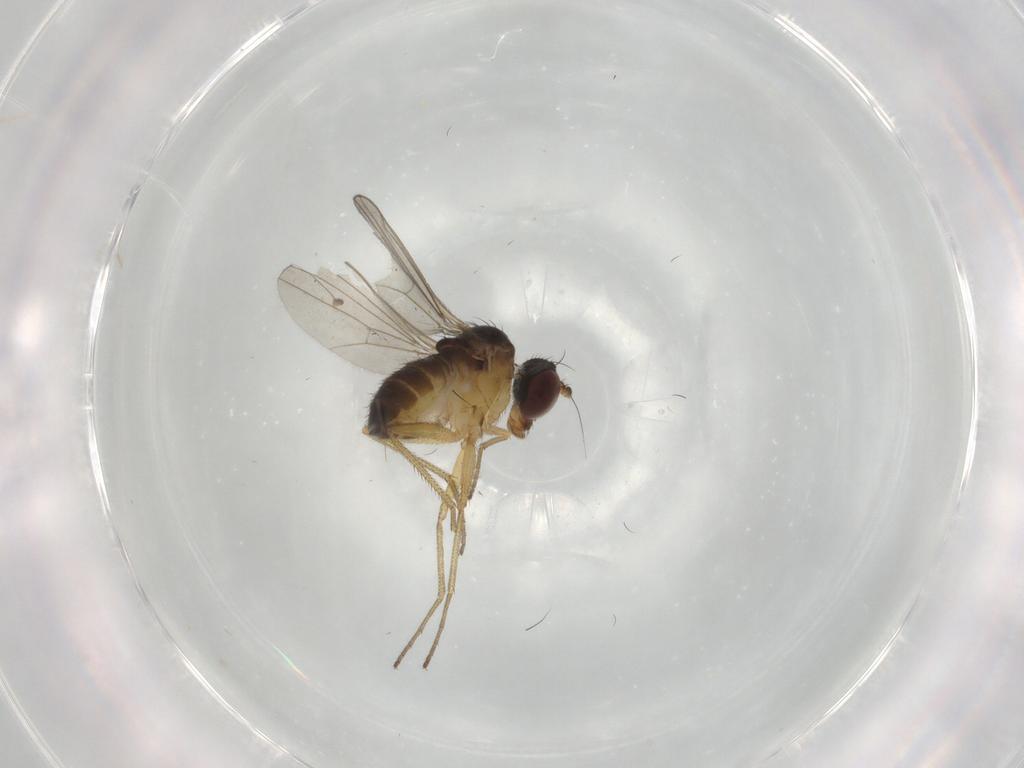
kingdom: Animalia
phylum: Arthropoda
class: Insecta
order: Diptera
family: Dolichopodidae
